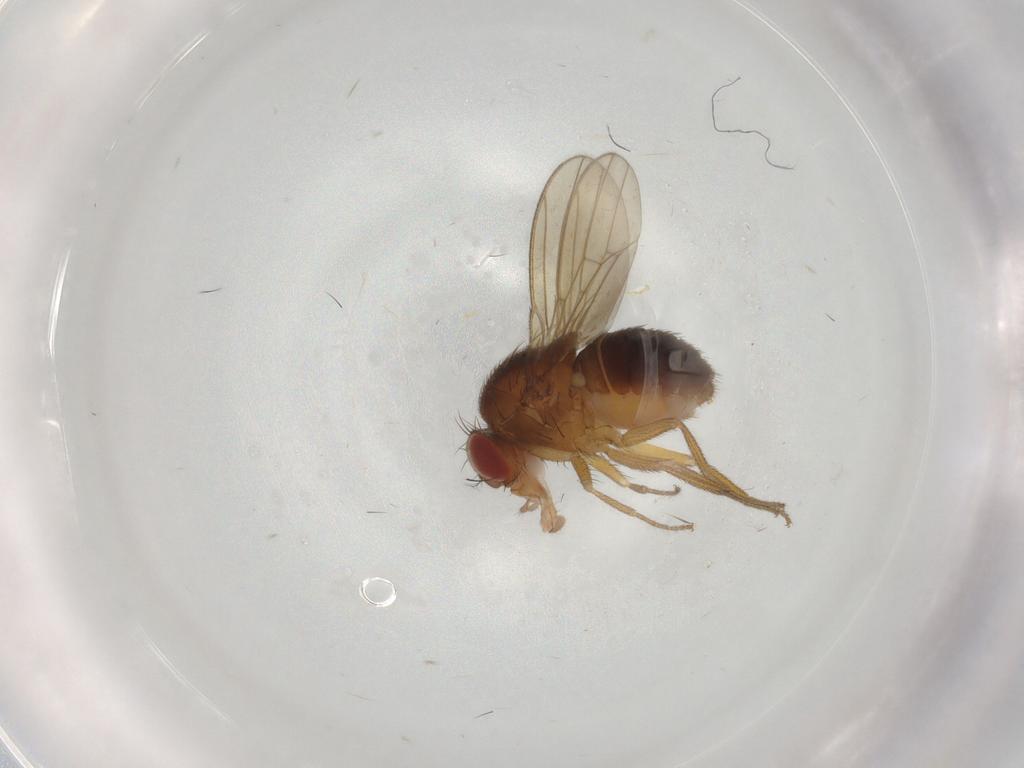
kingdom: Animalia
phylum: Arthropoda
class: Insecta
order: Diptera
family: Drosophilidae
